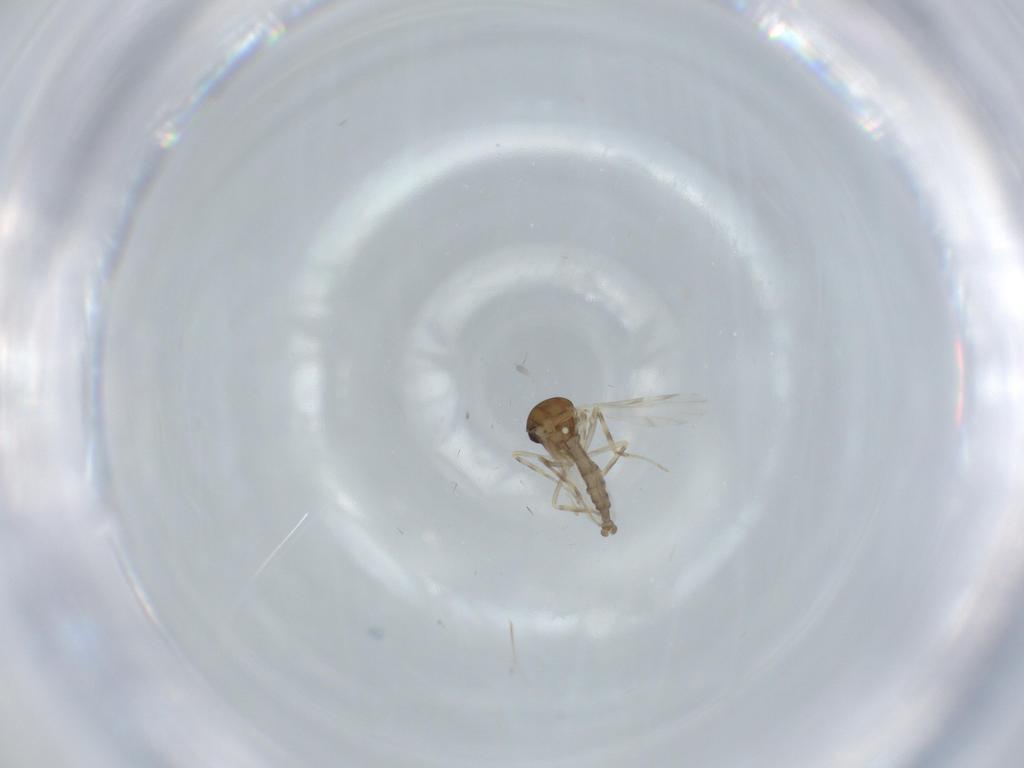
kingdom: Animalia
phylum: Arthropoda
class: Insecta
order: Diptera
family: Ceratopogonidae
